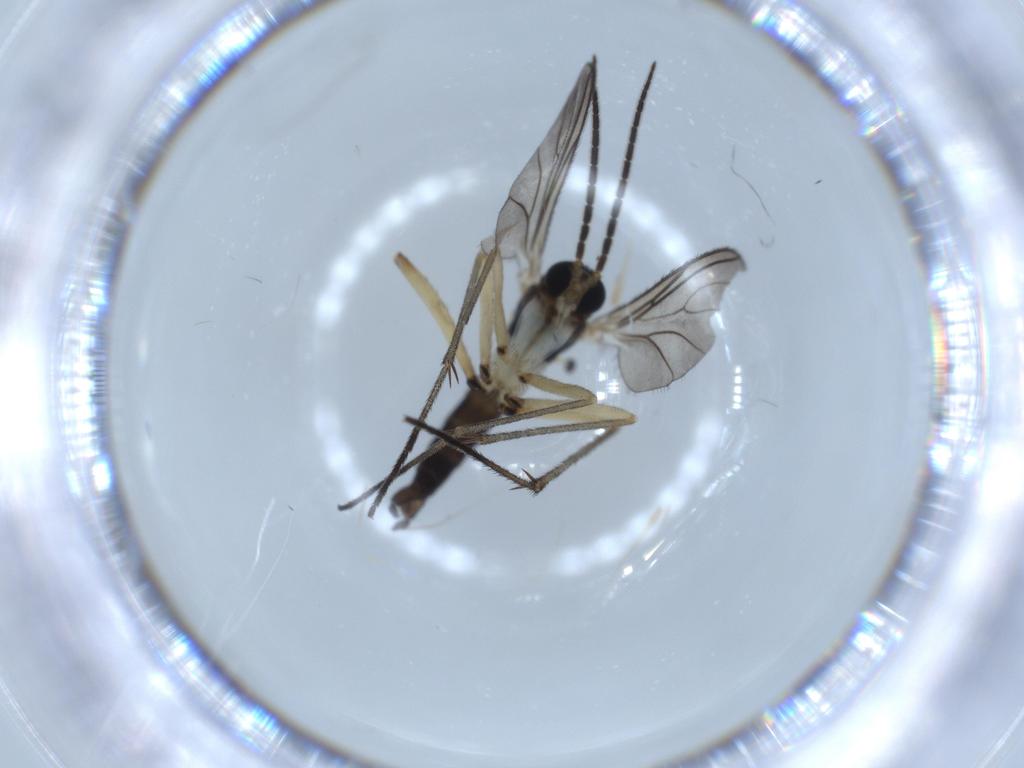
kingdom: Animalia
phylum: Arthropoda
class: Insecta
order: Diptera
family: Sciaridae
